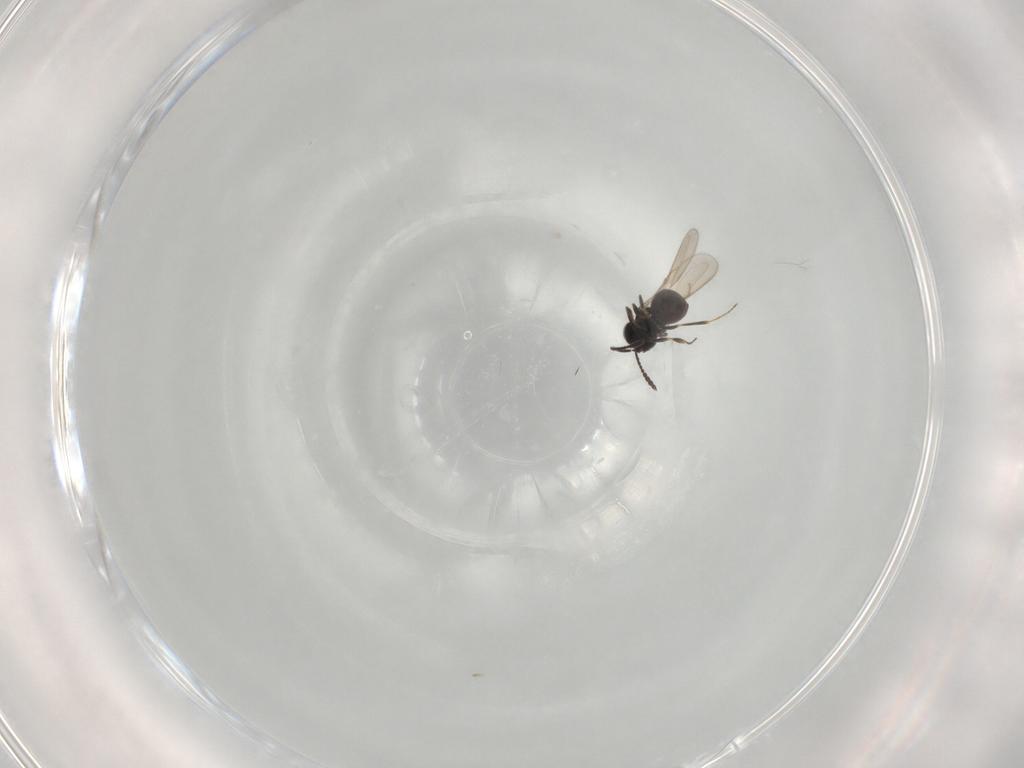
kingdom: Animalia
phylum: Arthropoda
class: Insecta
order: Hymenoptera
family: Scelionidae
